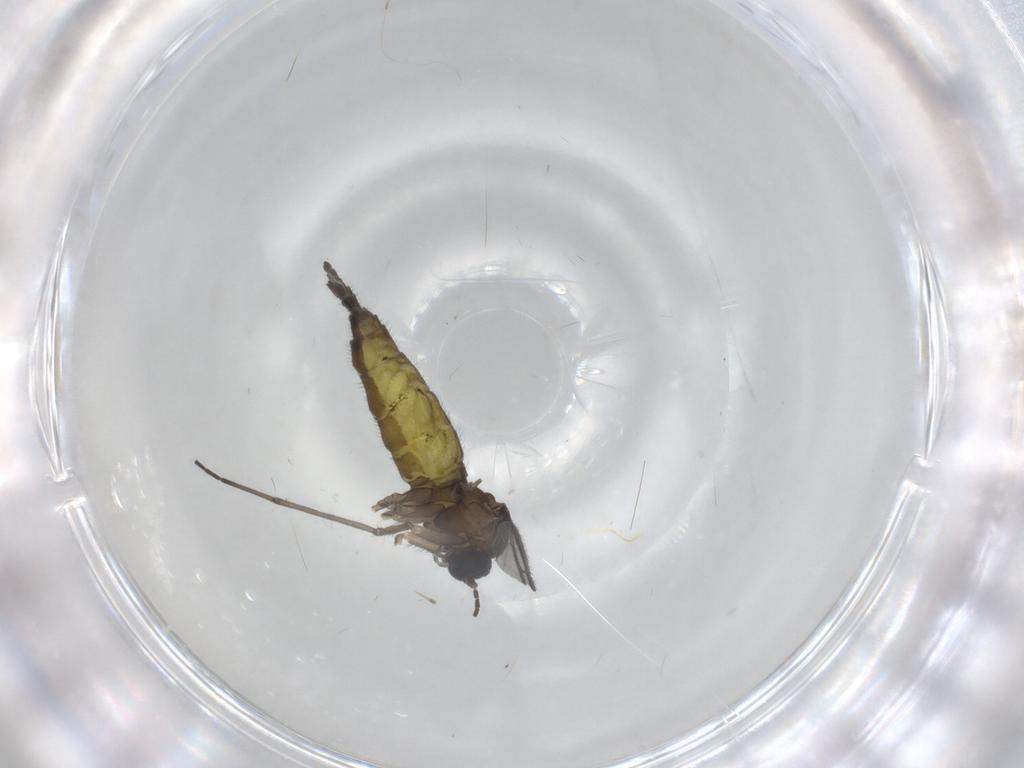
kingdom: Animalia
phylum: Arthropoda
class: Insecta
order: Diptera
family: Sciaridae
